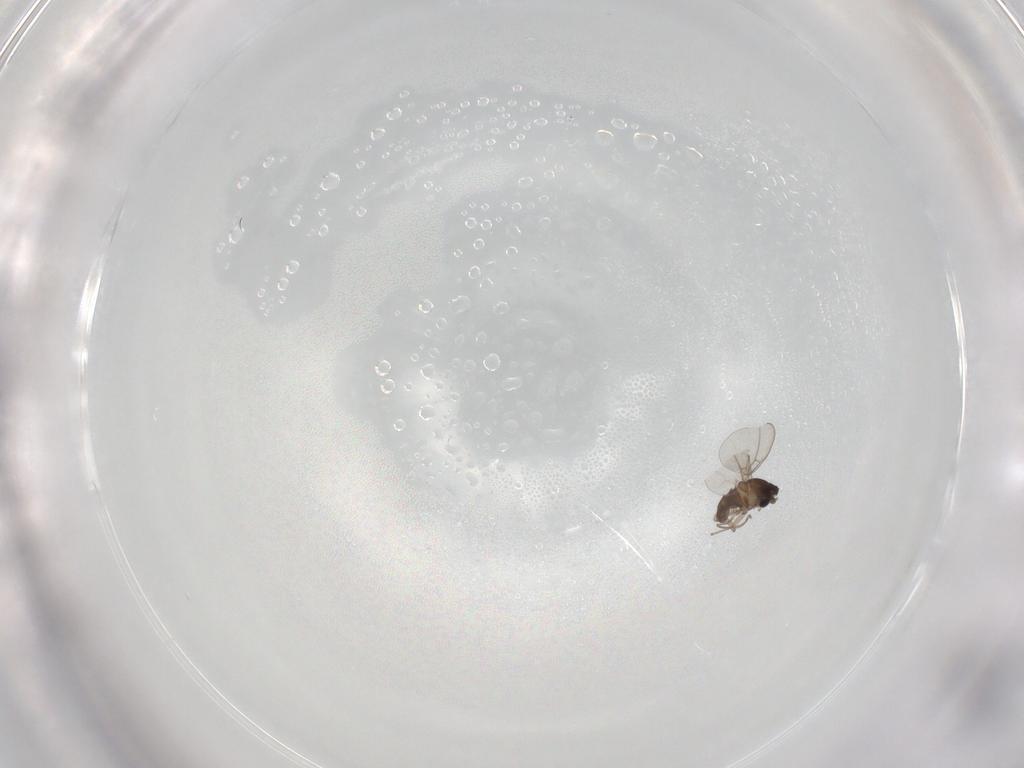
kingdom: Animalia
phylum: Arthropoda
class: Insecta
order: Diptera
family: Cecidomyiidae
